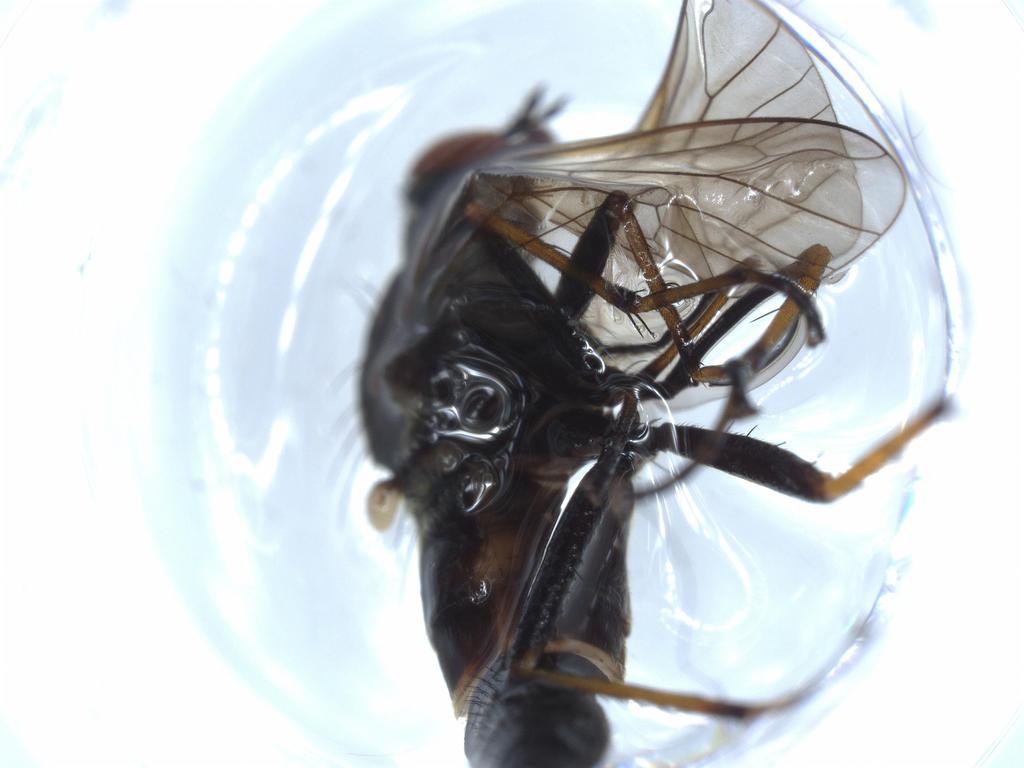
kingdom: Animalia
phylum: Arthropoda
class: Insecta
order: Diptera
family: Therevidae
